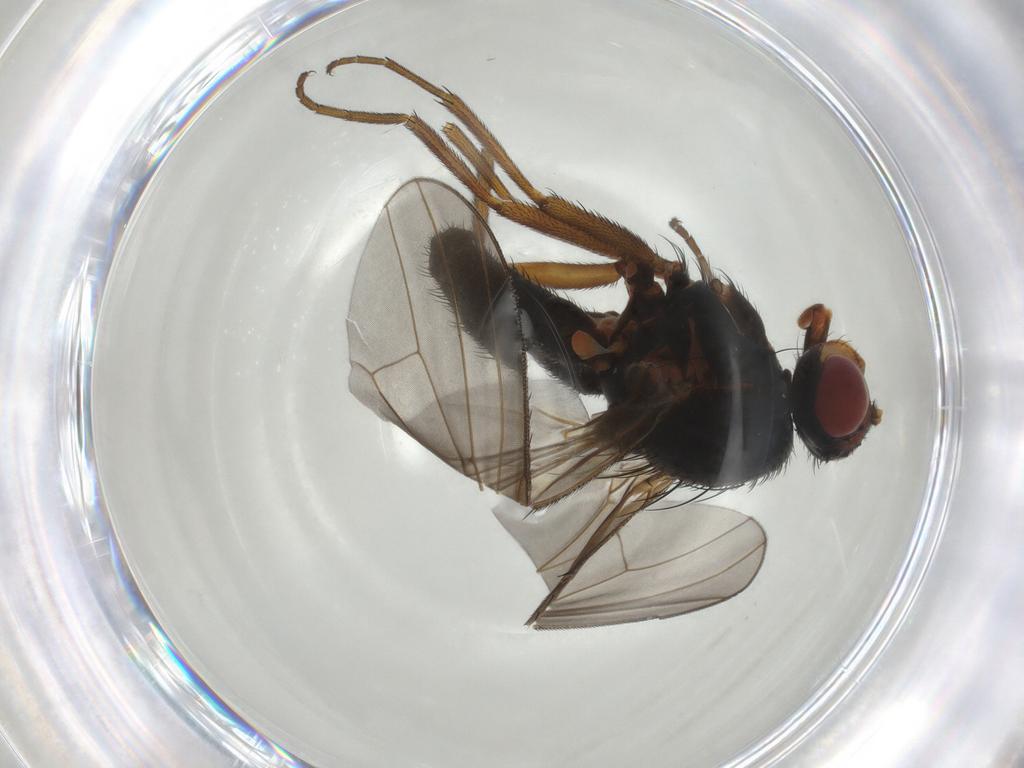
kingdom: Animalia
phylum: Arthropoda
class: Insecta
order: Diptera
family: Heleomyzidae
